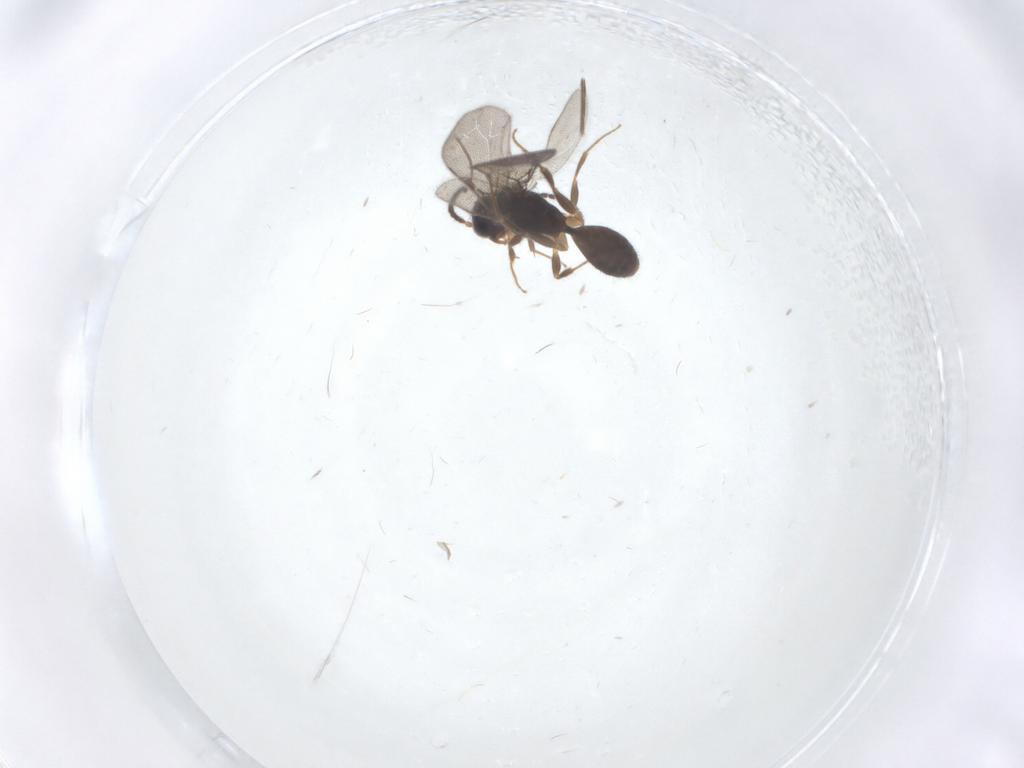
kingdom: Animalia
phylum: Arthropoda
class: Insecta
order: Hymenoptera
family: Bethylidae
